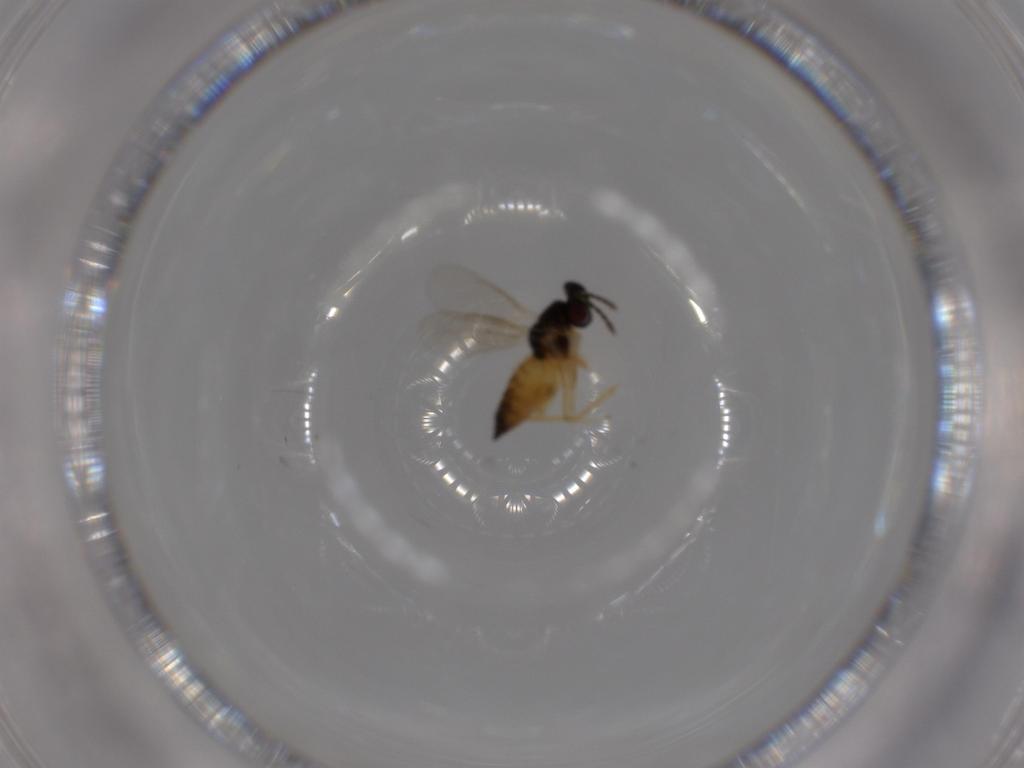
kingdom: Animalia
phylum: Arthropoda
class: Insecta
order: Hymenoptera
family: Eulophidae
